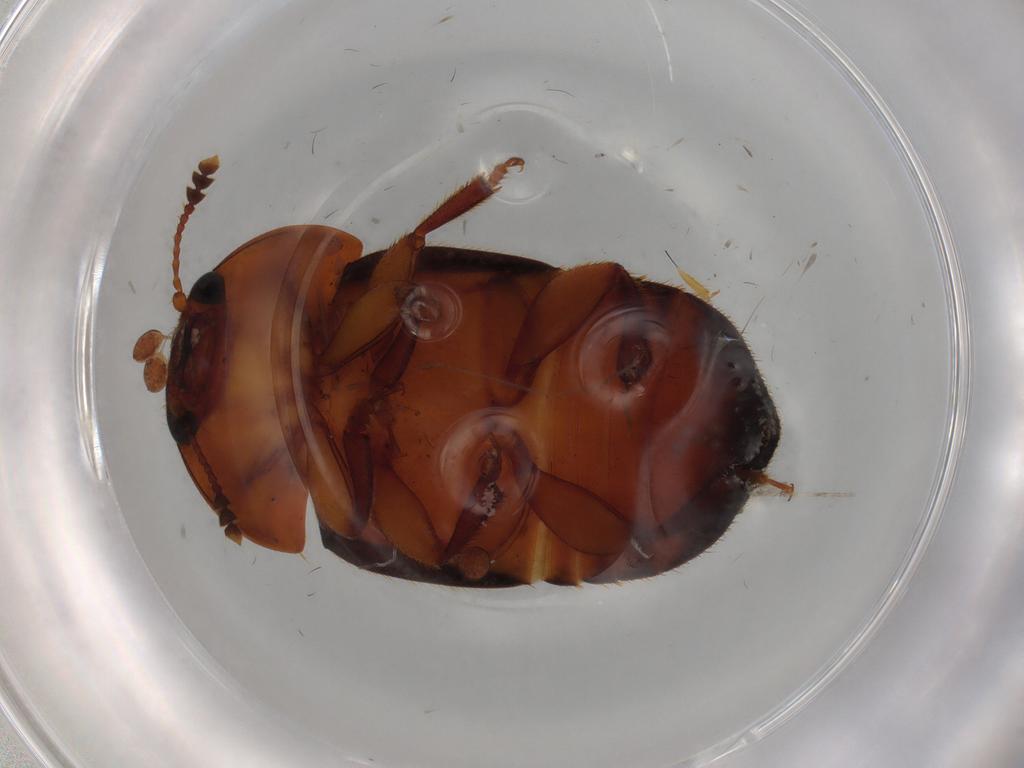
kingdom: Animalia
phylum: Arthropoda
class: Insecta
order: Coleoptera
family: Nitidulidae
